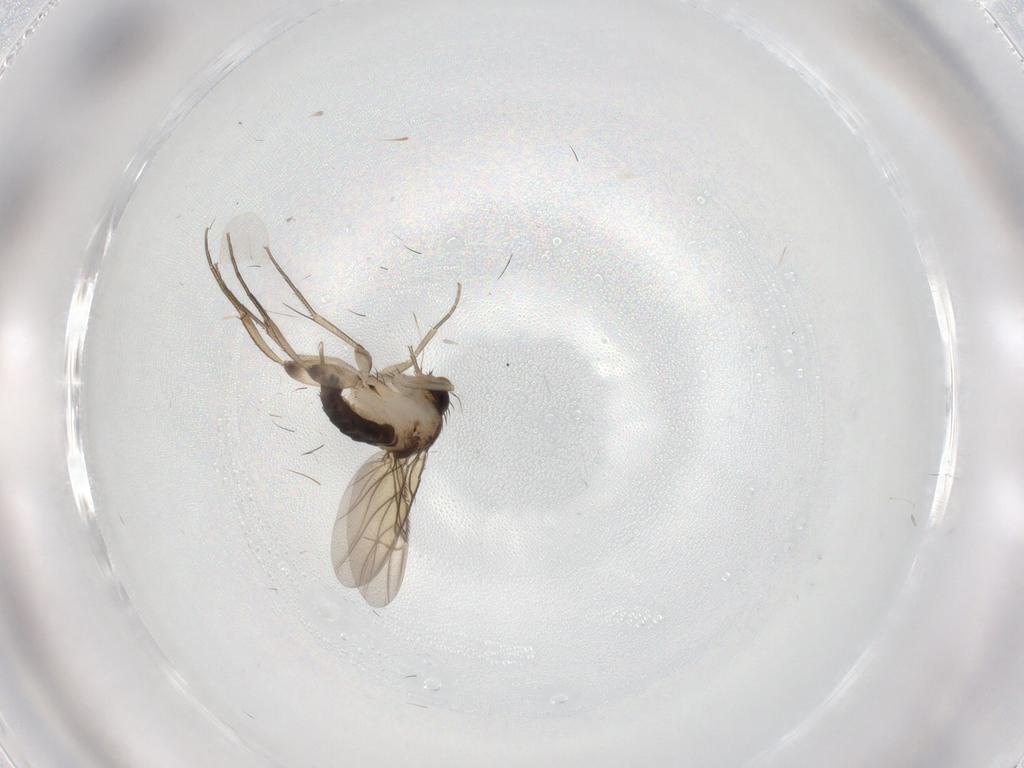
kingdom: Animalia
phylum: Arthropoda
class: Insecta
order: Diptera
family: Phoridae
